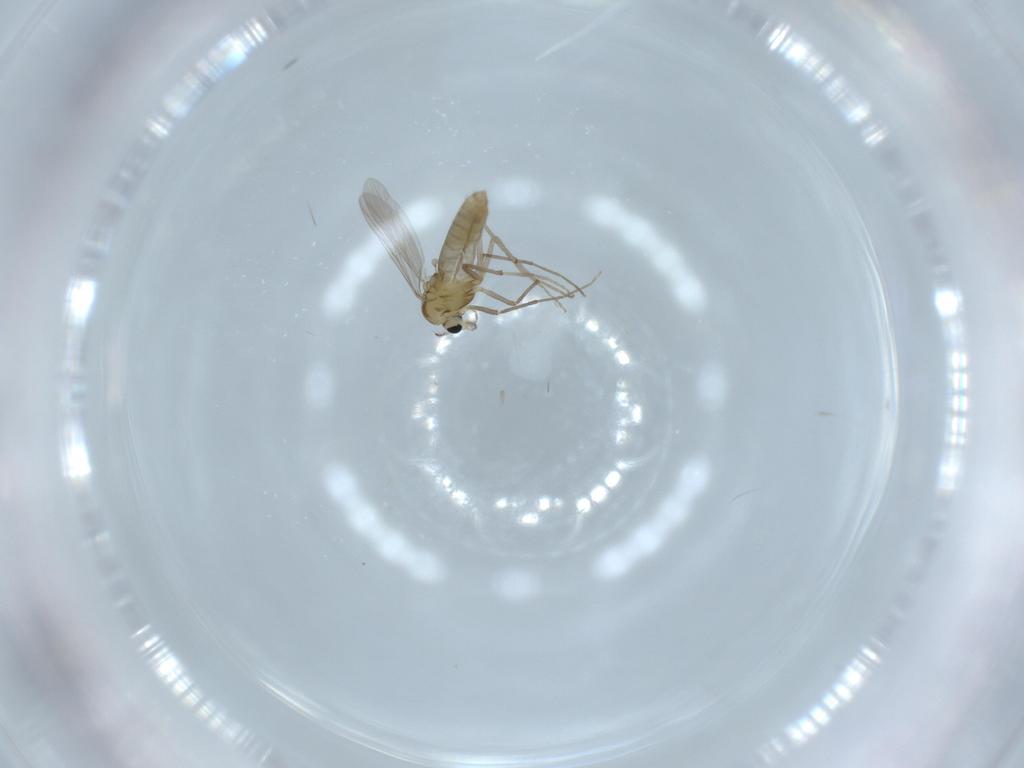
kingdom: Animalia
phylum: Arthropoda
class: Insecta
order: Diptera
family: Chironomidae
